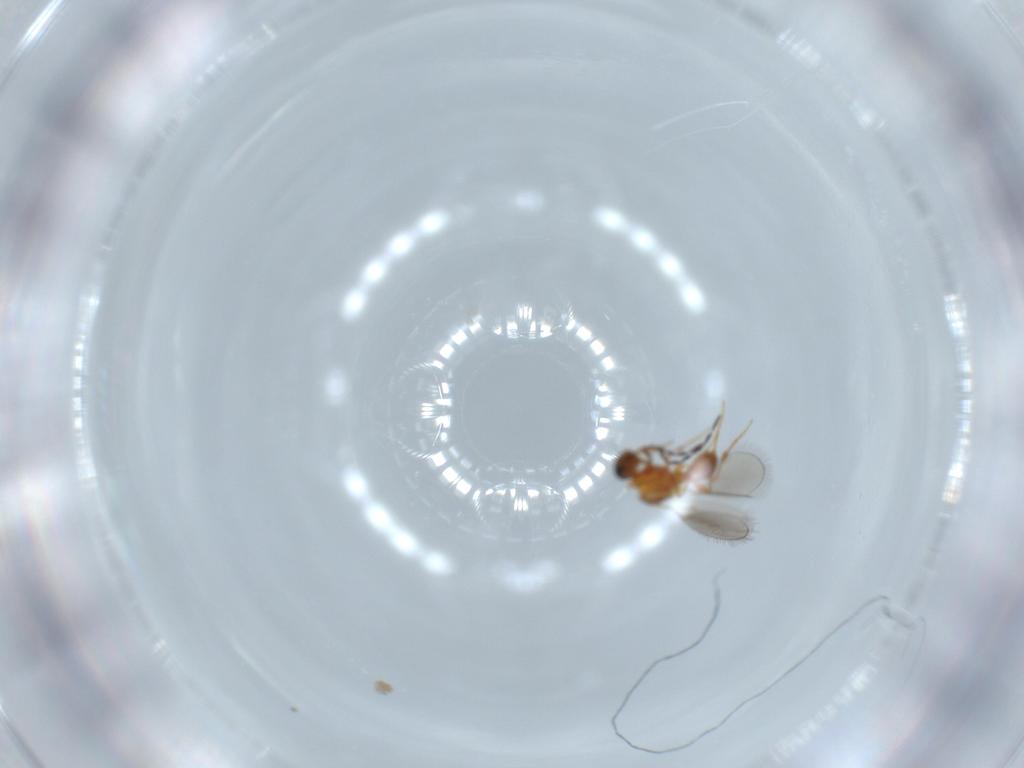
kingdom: Animalia
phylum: Arthropoda
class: Insecta
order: Hymenoptera
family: Platygastridae
